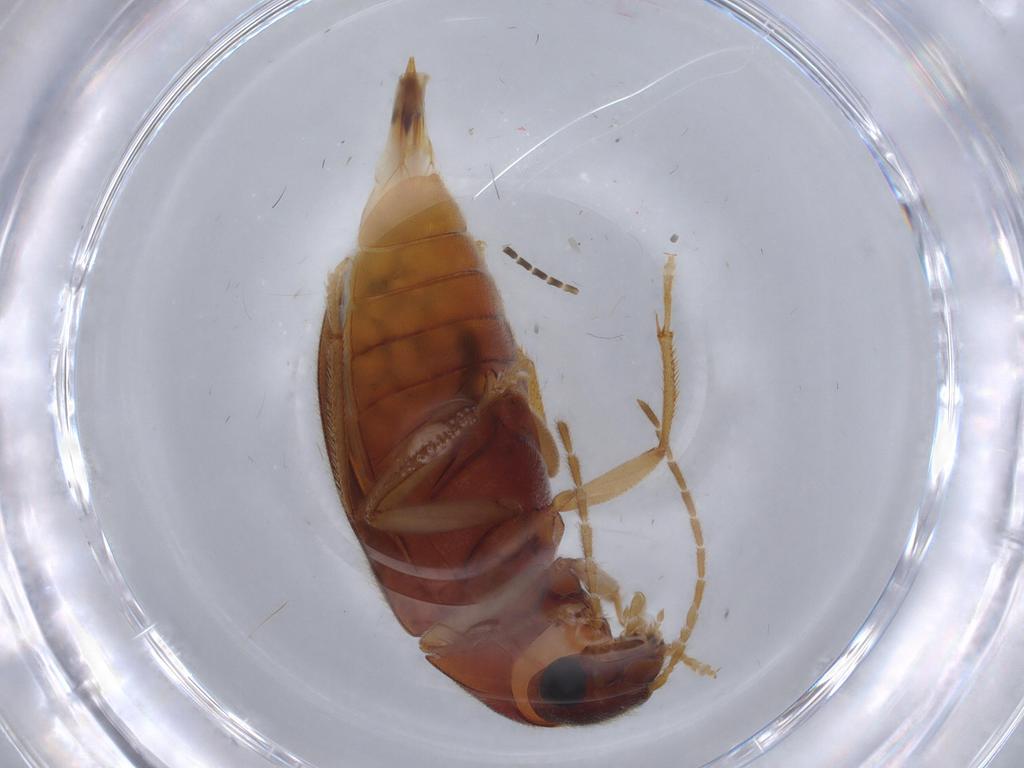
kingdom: Animalia
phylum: Arthropoda
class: Insecta
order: Coleoptera
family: Ptilodactylidae
